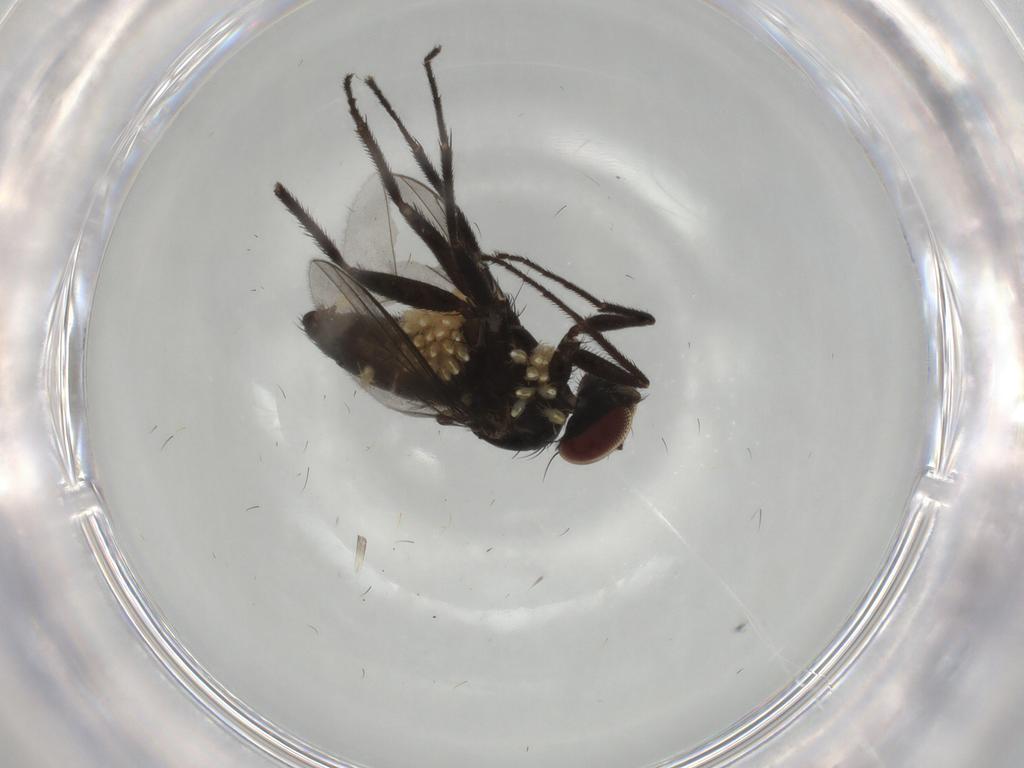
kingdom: Animalia
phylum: Arthropoda
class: Insecta
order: Diptera
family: Dolichopodidae
